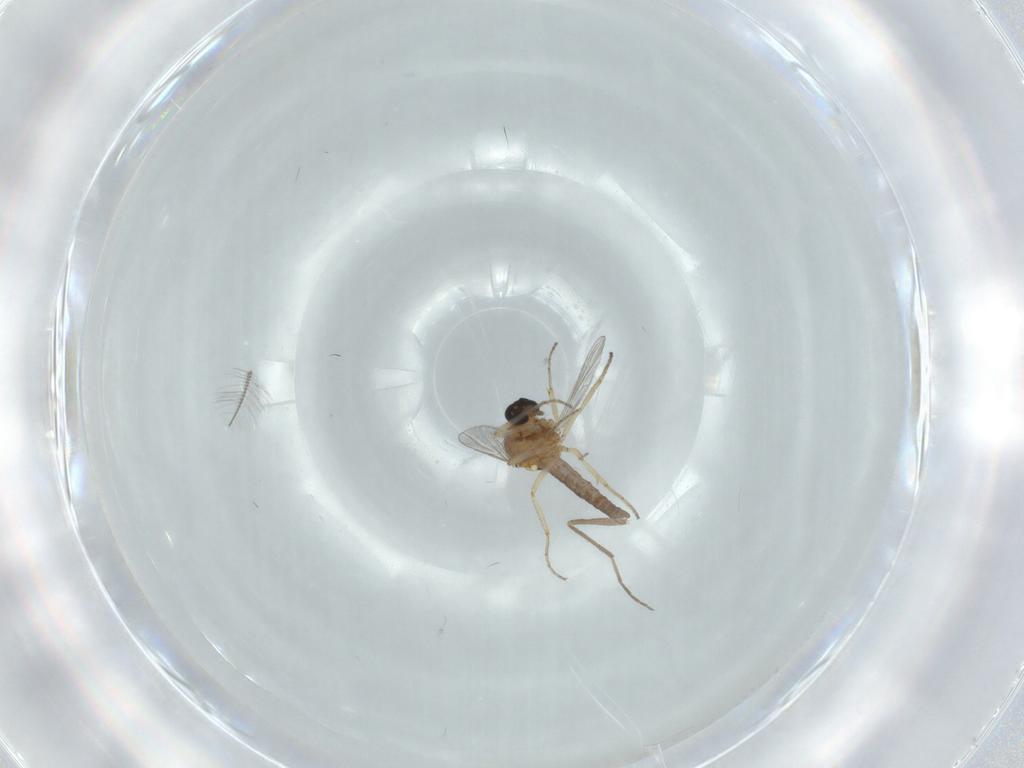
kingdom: Animalia
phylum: Arthropoda
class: Insecta
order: Diptera
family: Chironomidae
